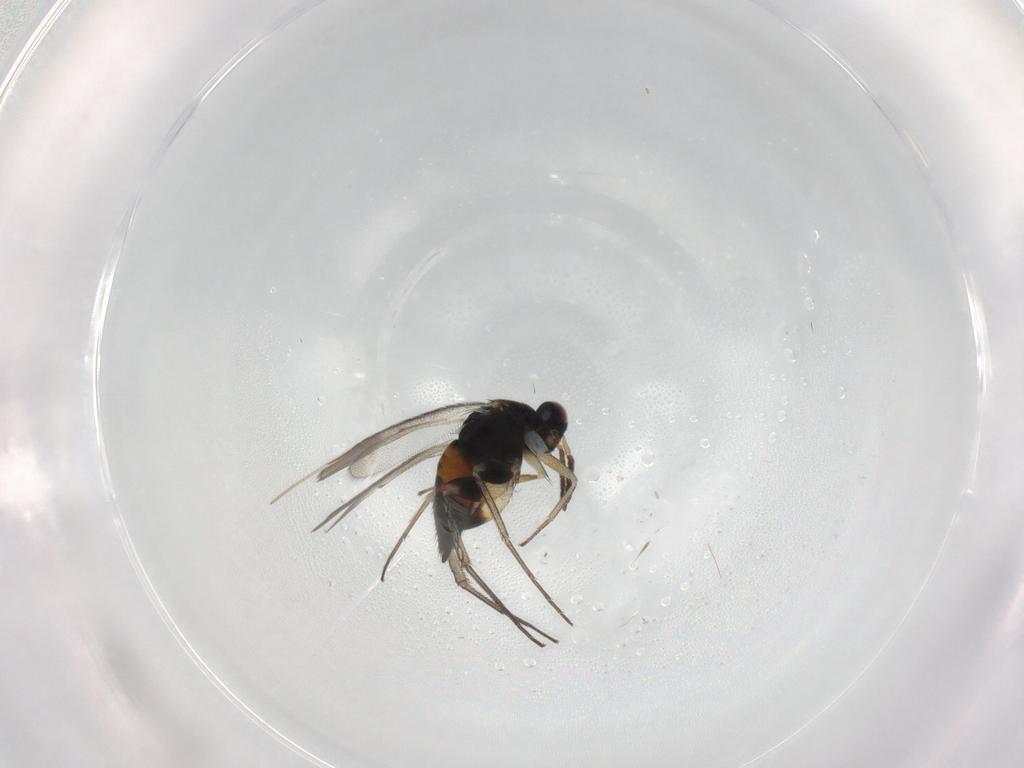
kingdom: Animalia
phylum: Arthropoda
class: Insecta
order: Hymenoptera
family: Eulophidae
